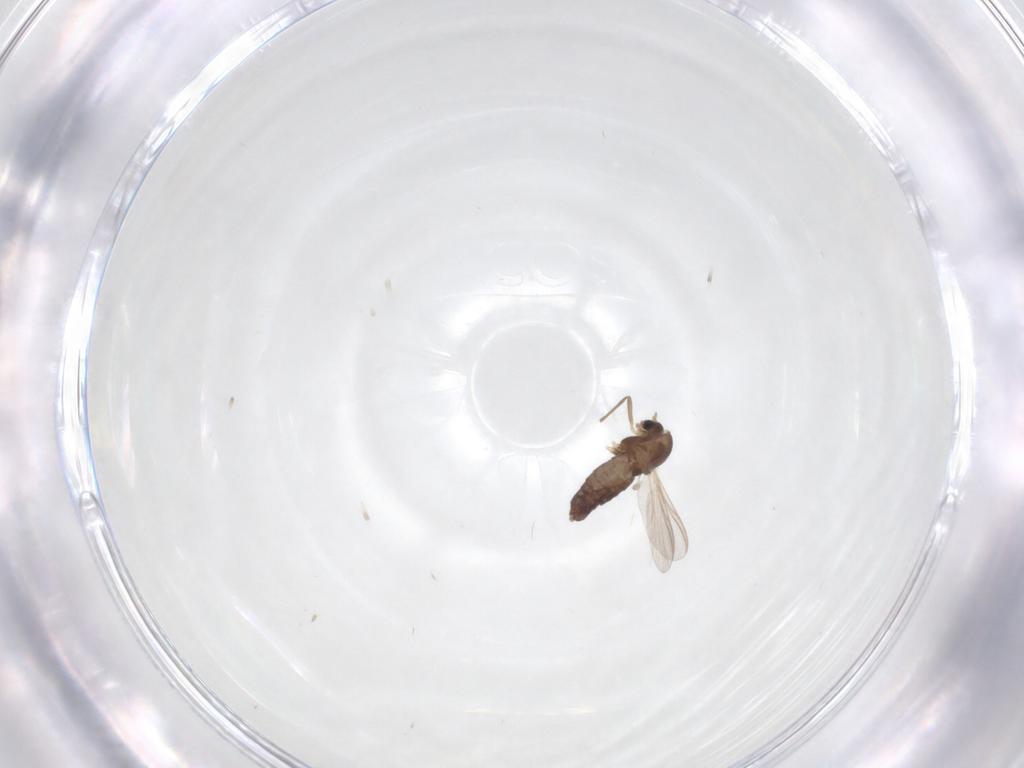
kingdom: Animalia
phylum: Arthropoda
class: Insecta
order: Diptera
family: Chironomidae
